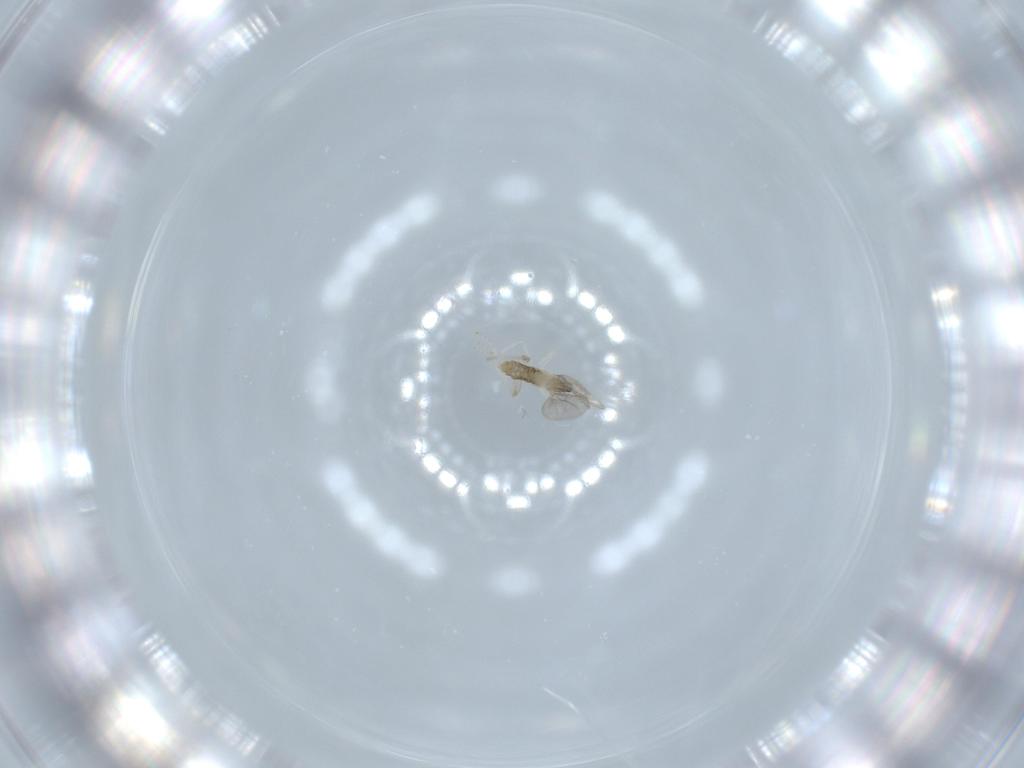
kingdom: Animalia
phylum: Arthropoda
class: Insecta
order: Diptera
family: Cecidomyiidae
